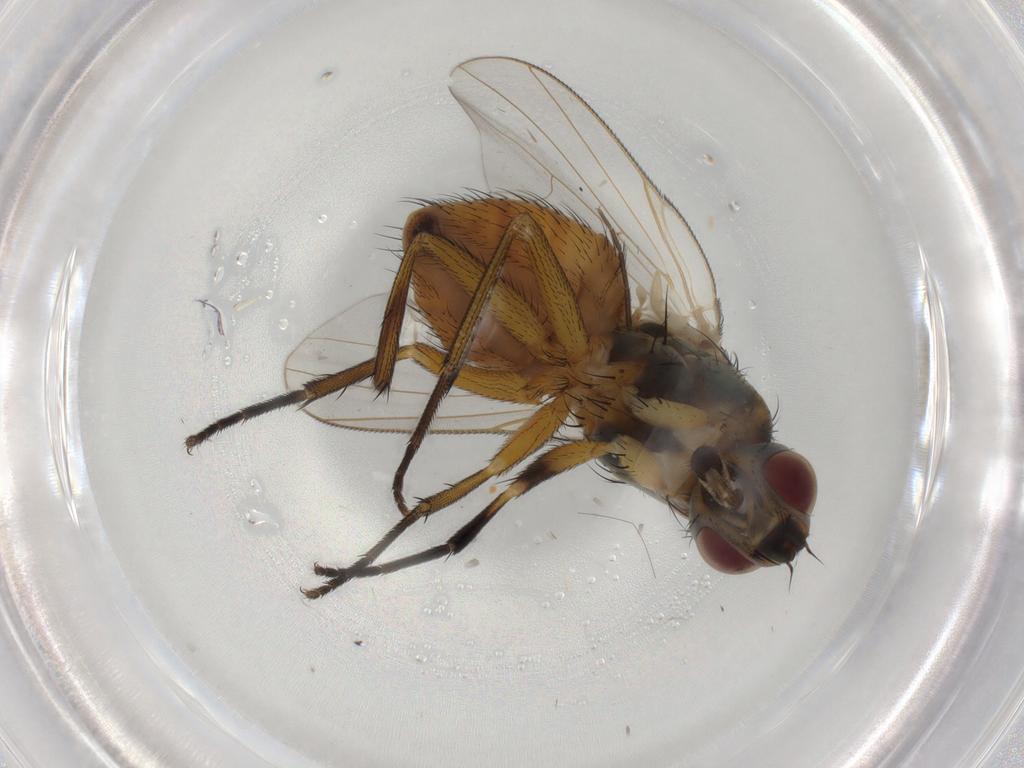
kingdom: Animalia
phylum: Arthropoda
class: Insecta
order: Diptera
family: Muscidae
